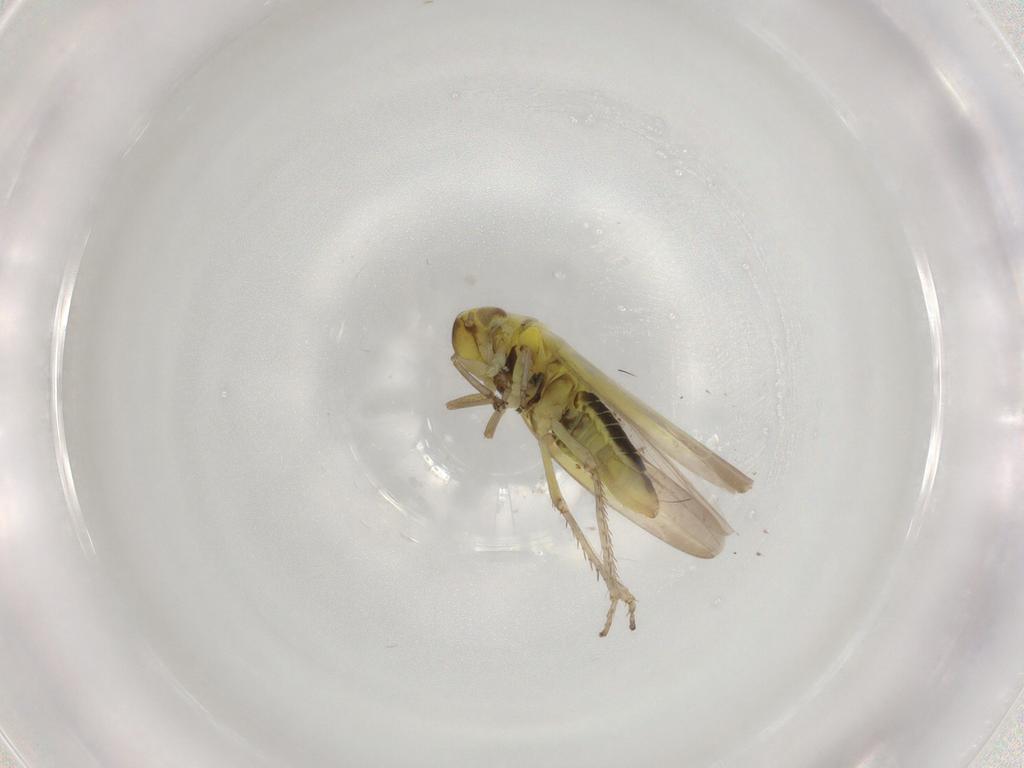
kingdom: Animalia
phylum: Arthropoda
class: Insecta
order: Hemiptera
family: Cicadellidae
